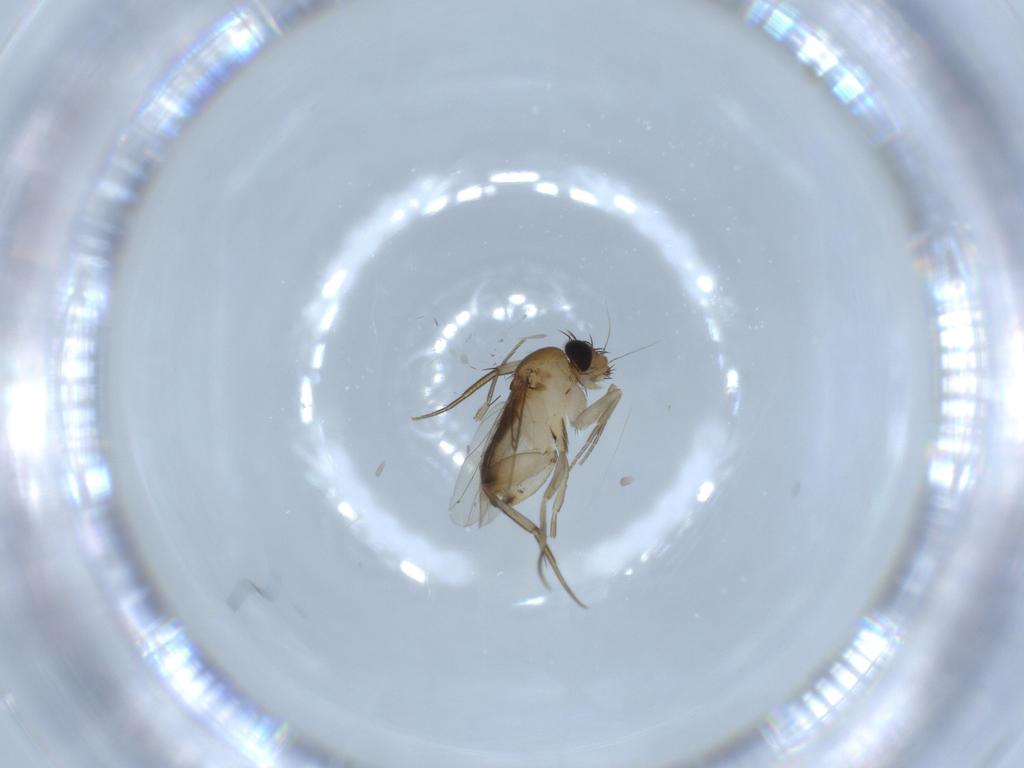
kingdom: Animalia
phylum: Arthropoda
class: Insecta
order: Diptera
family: Phoridae
